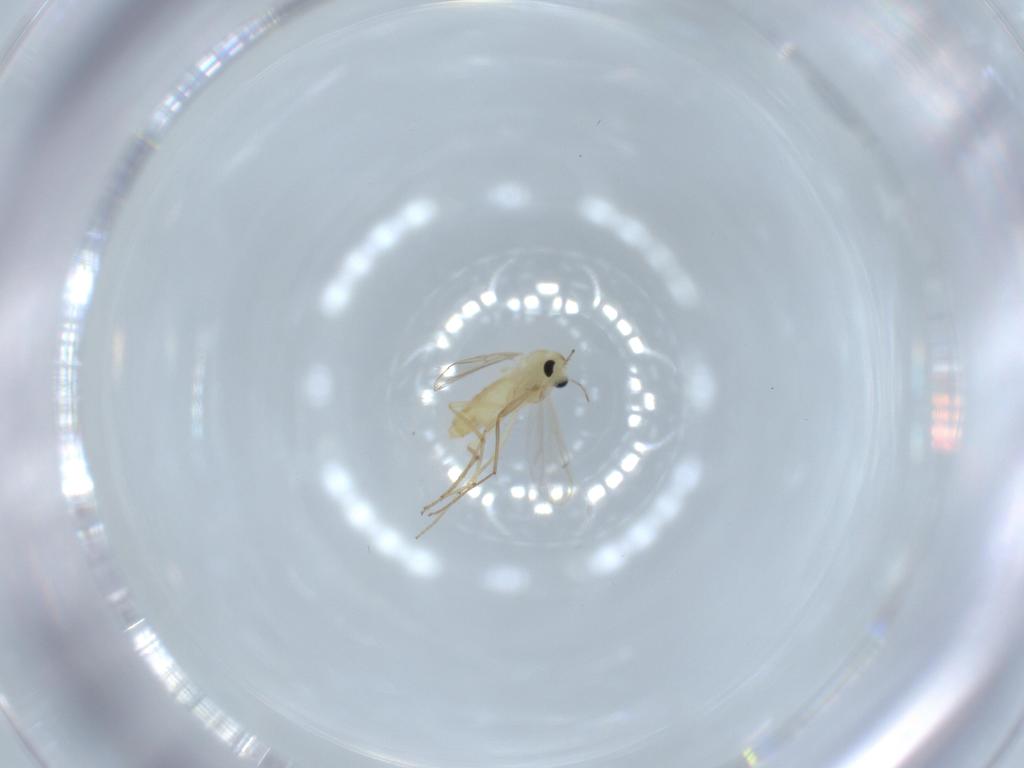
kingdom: Animalia
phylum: Arthropoda
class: Insecta
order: Diptera
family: Chironomidae
